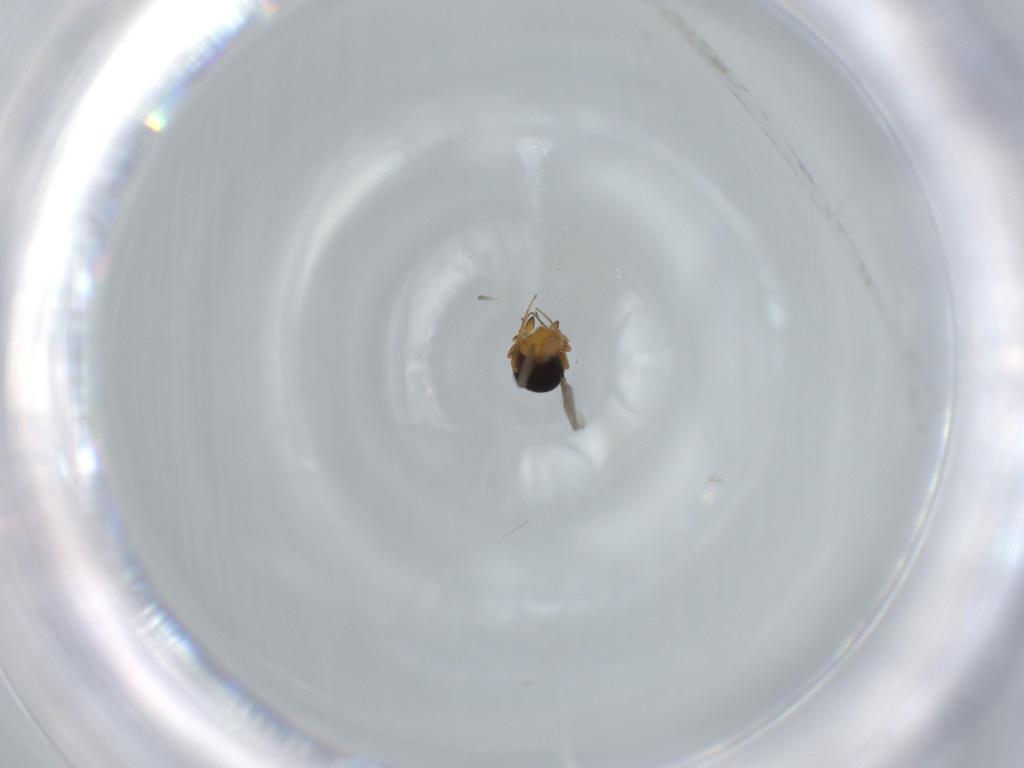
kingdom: Animalia
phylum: Arthropoda
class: Insecta
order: Hymenoptera
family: Scelionidae
